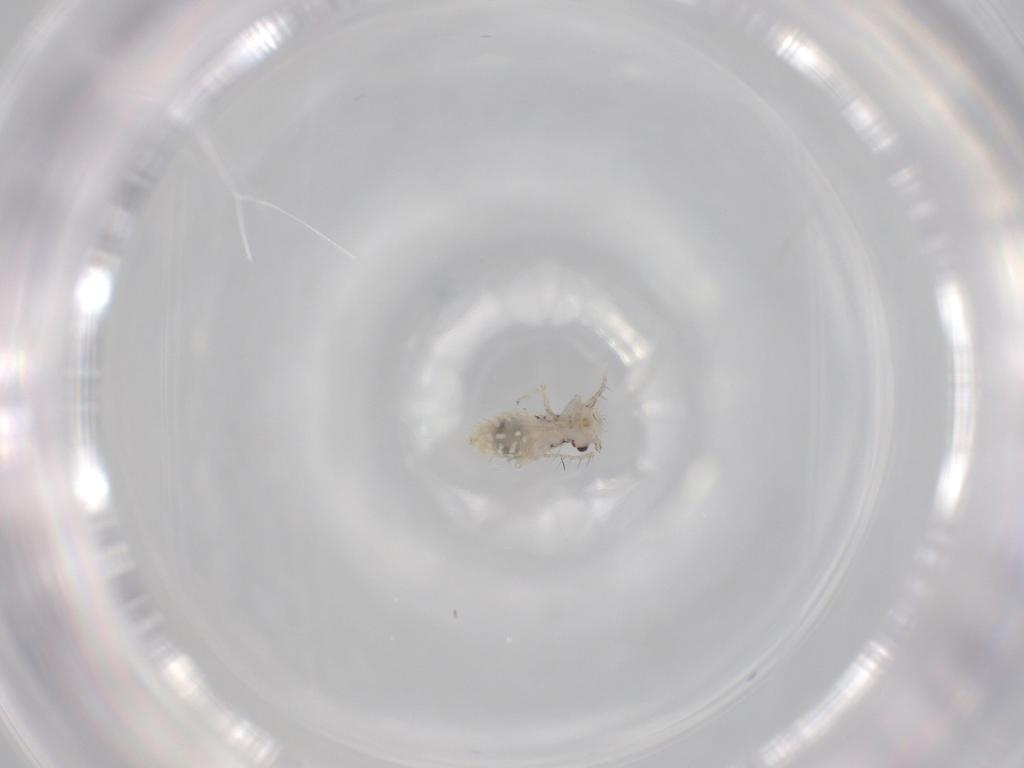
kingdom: Animalia
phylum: Arthropoda
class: Insecta
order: Psocodea
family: Pseudocaeciliidae
